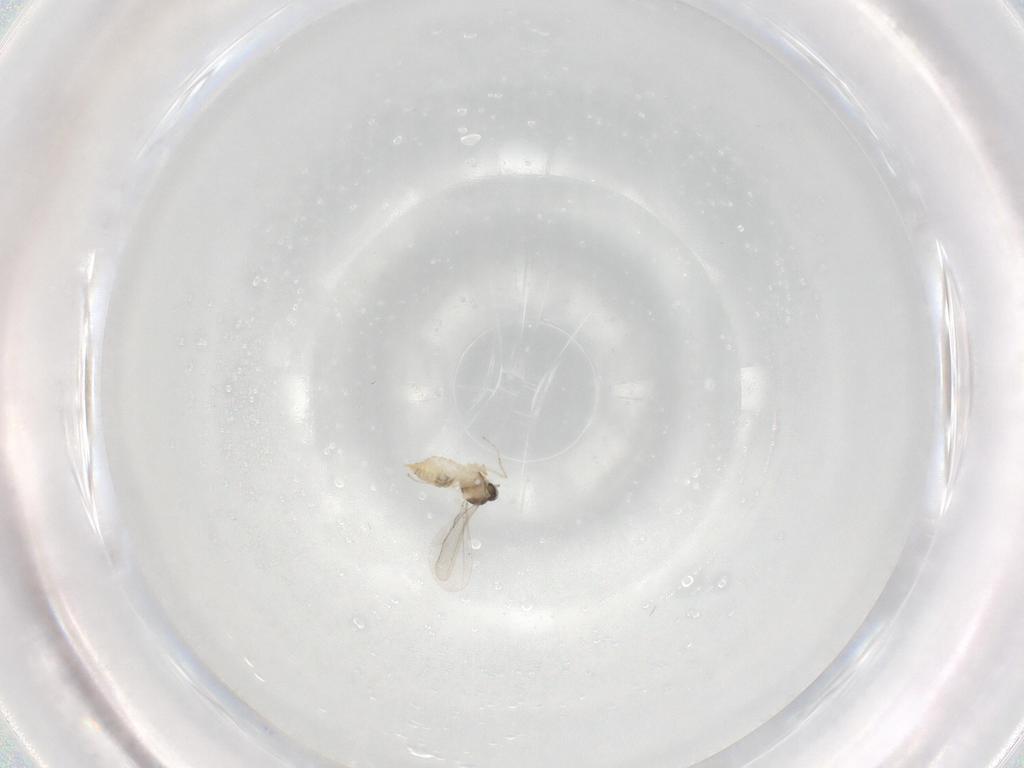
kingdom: Animalia
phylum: Arthropoda
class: Insecta
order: Diptera
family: Cecidomyiidae
